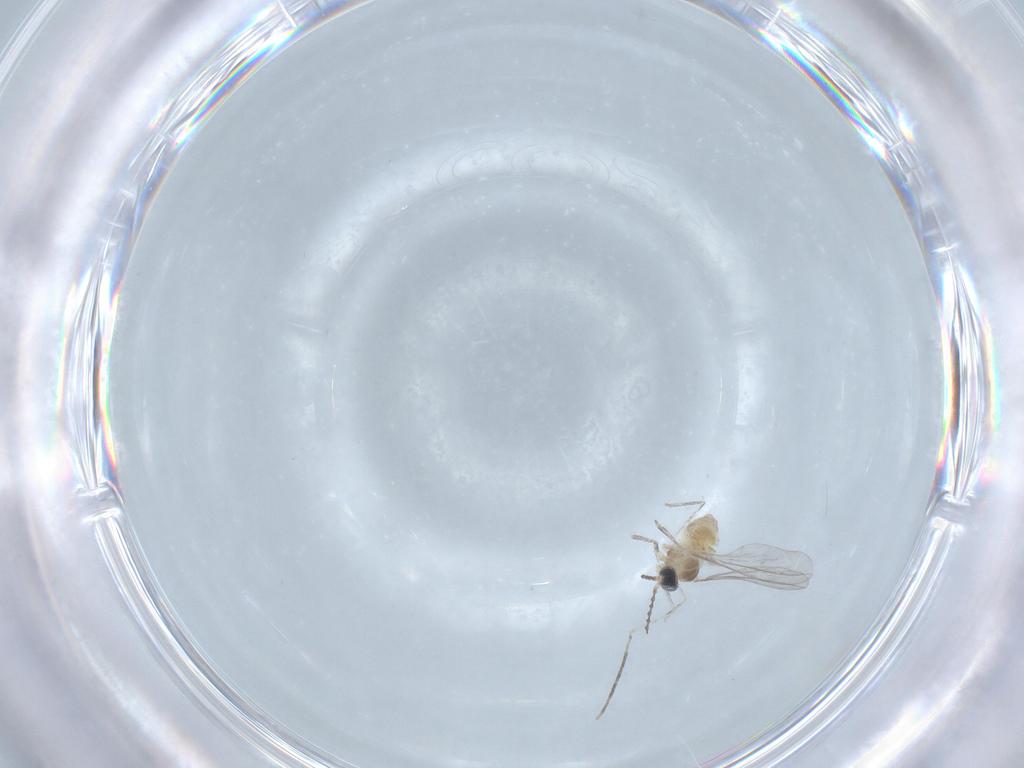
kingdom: Animalia
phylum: Arthropoda
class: Insecta
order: Diptera
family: Cecidomyiidae
